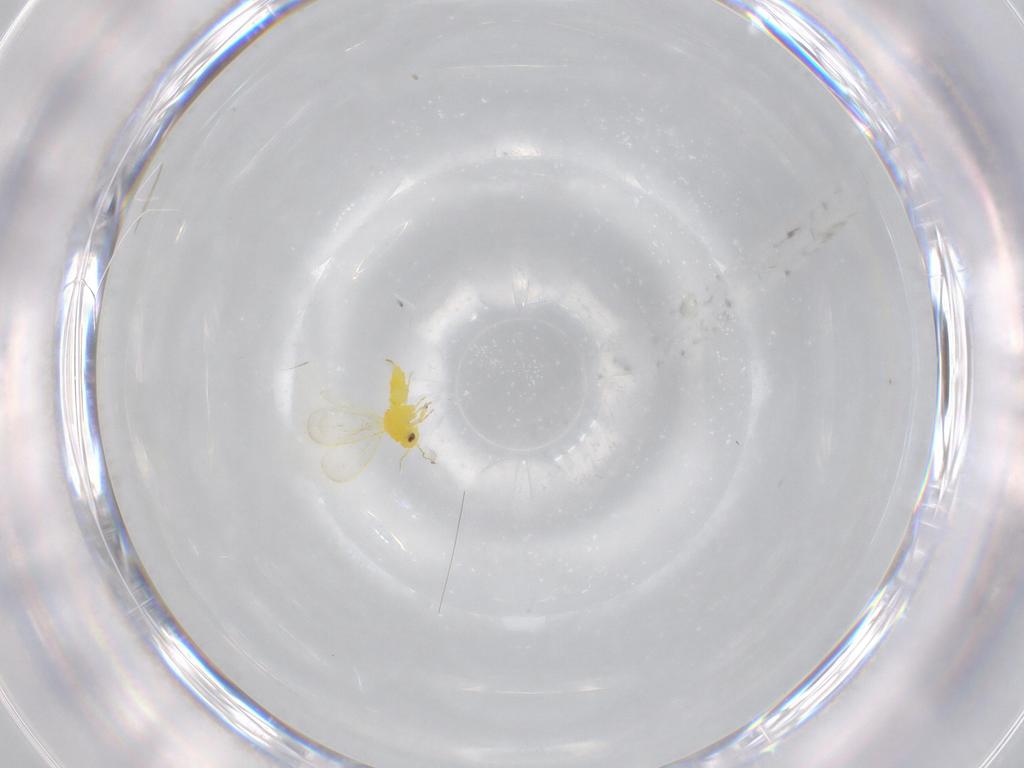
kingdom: Animalia
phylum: Arthropoda
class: Insecta
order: Hemiptera
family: Aleyrodidae
